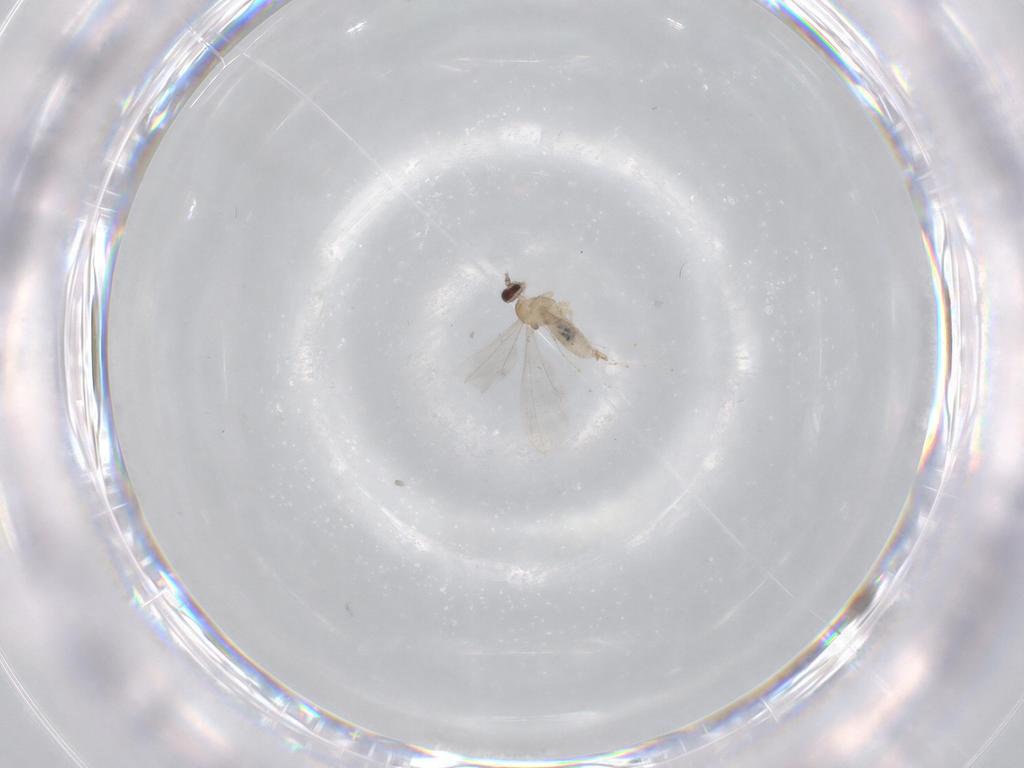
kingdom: Animalia
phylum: Arthropoda
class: Insecta
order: Diptera
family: Cecidomyiidae
